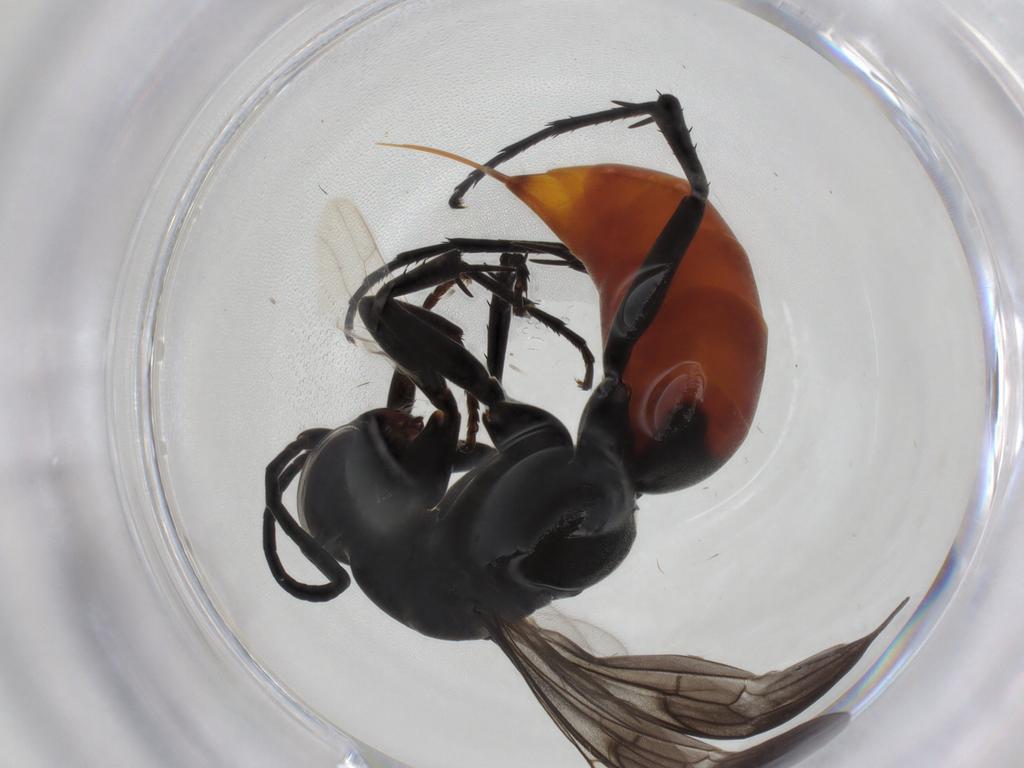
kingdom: Animalia
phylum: Arthropoda
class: Insecta
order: Hymenoptera
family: Pompilidae
